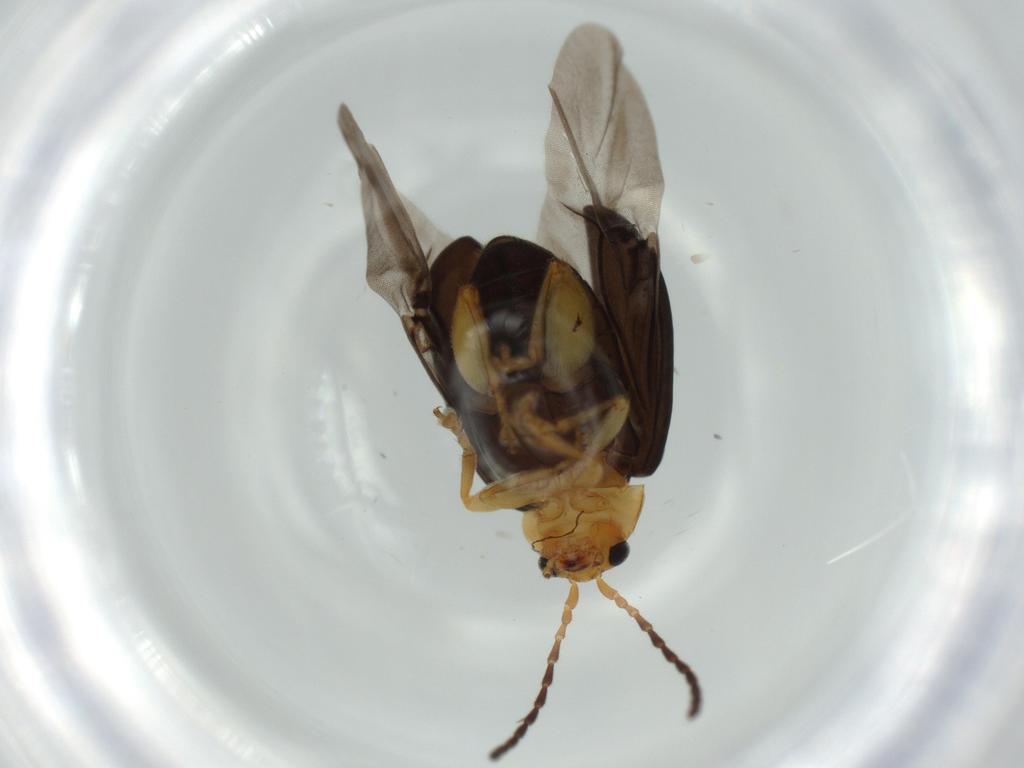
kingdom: Animalia
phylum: Arthropoda
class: Insecta
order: Coleoptera
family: Chrysomelidae
